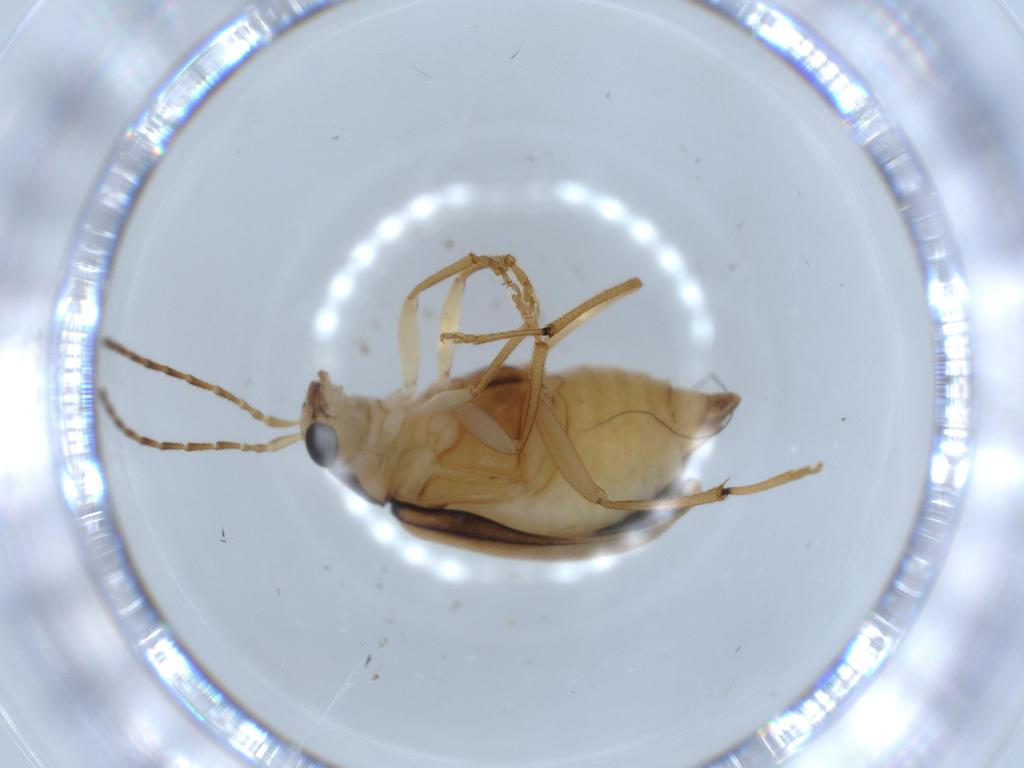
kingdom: Animalia
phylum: Arthropoda
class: Insecta
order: Coleoptera
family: Chrysomelidae
